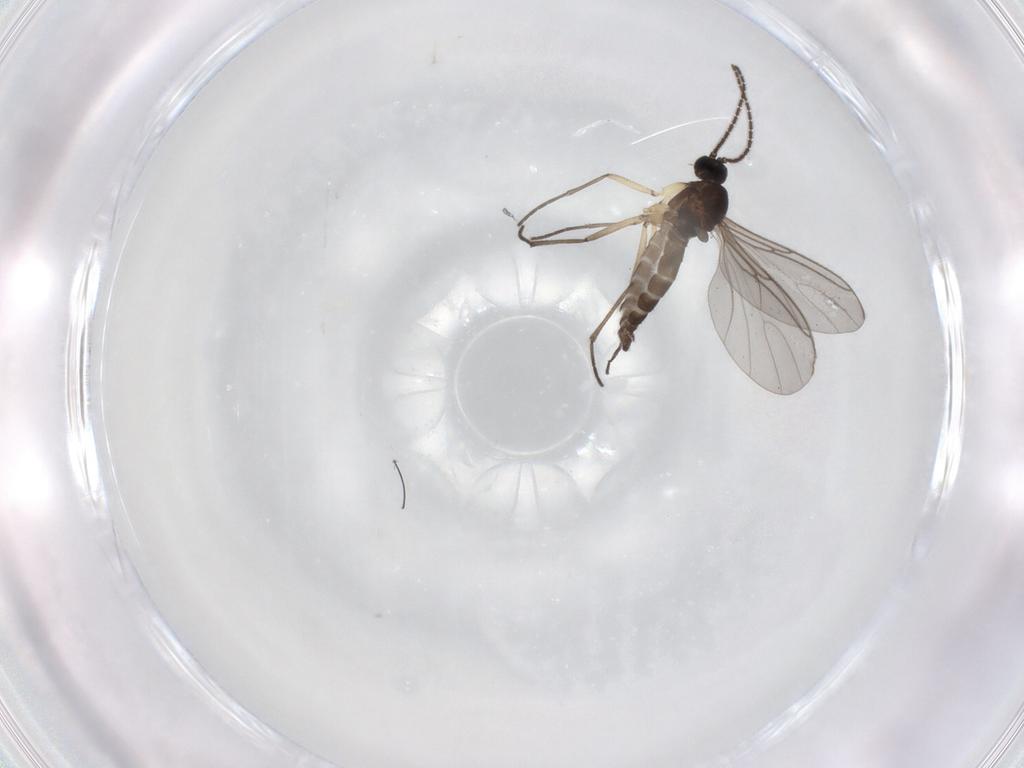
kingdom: Animalia
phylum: Arthropoda
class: Insecta
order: Diptera
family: Sciaridae
